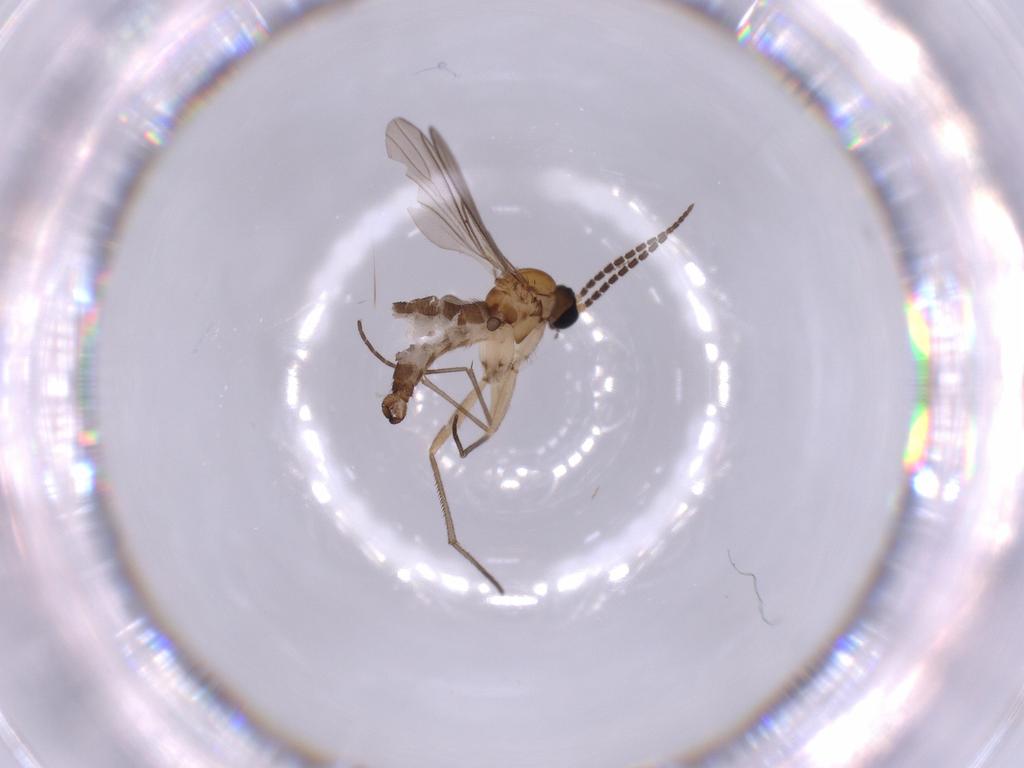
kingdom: Animalia
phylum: Arthropoda
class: Insecta
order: Diptera
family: Sciaridae
